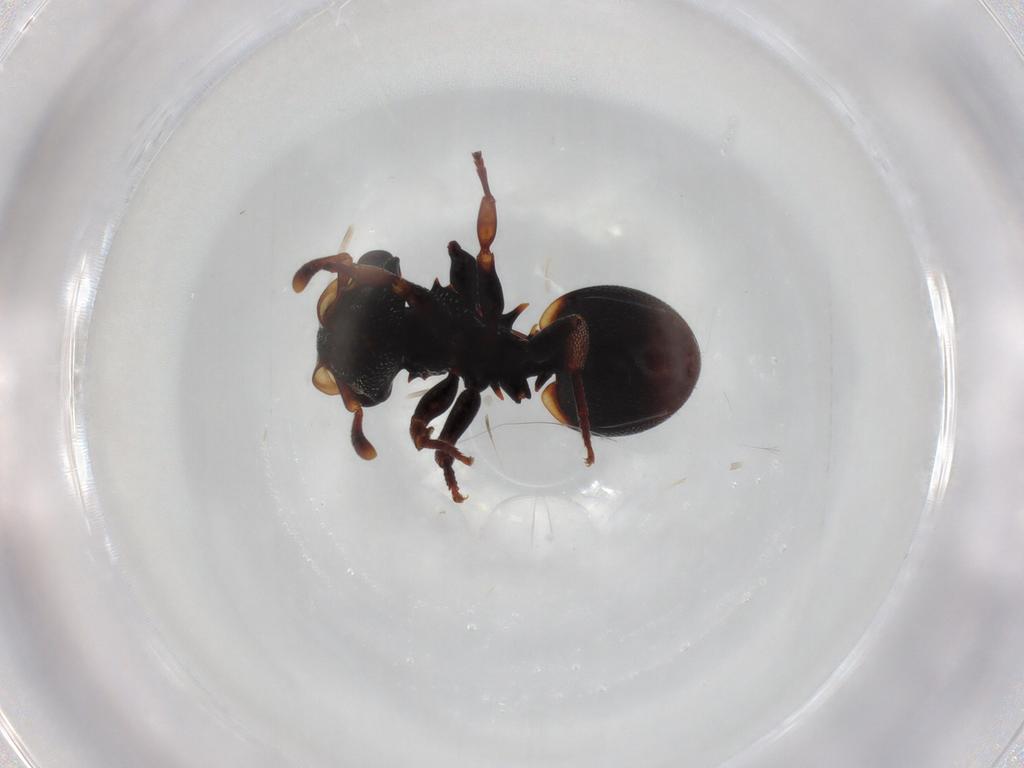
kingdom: Animalia
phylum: Arthropoda
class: Insecta
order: Hymenoptera
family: Formicidae
